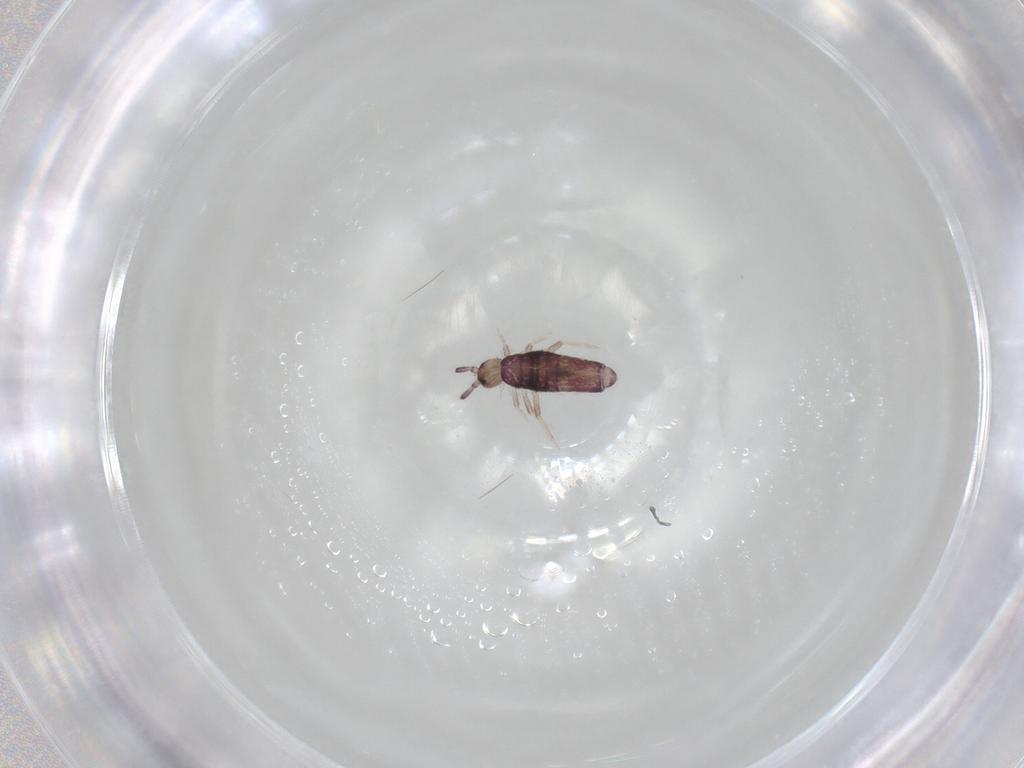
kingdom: Animalia
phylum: Arthropoda
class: Collembola
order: Entomobryomorpha
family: Entomobryidae
